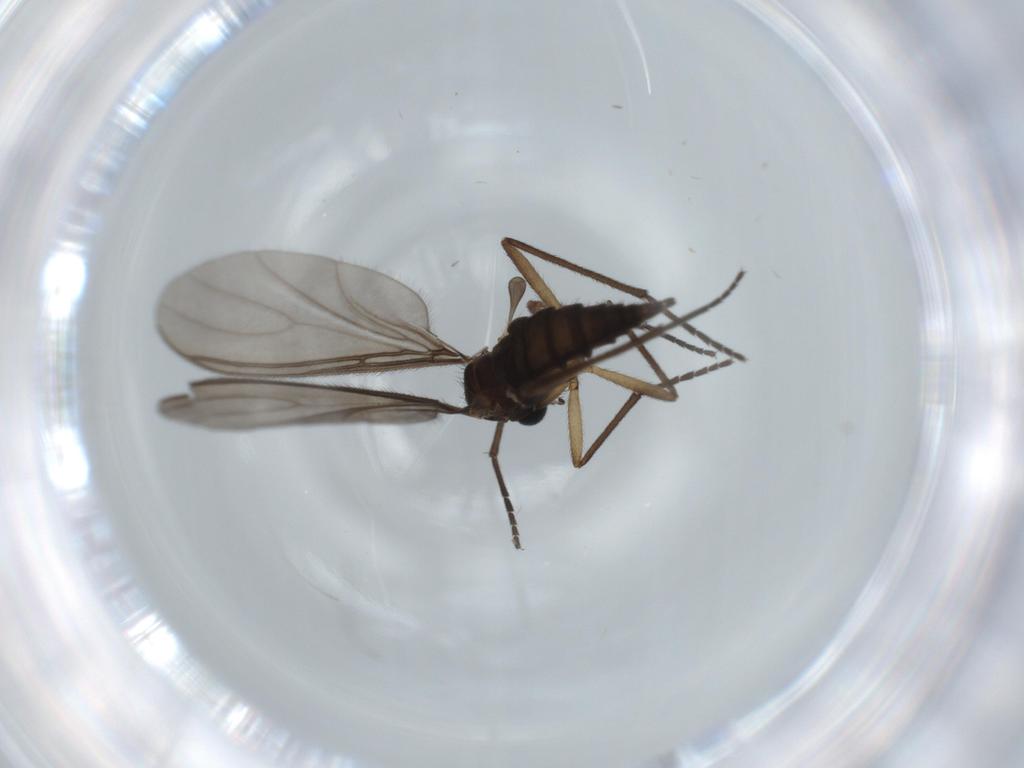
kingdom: Animalia
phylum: Arthropoda
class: Insecta
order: Diptera
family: Sciaridae
